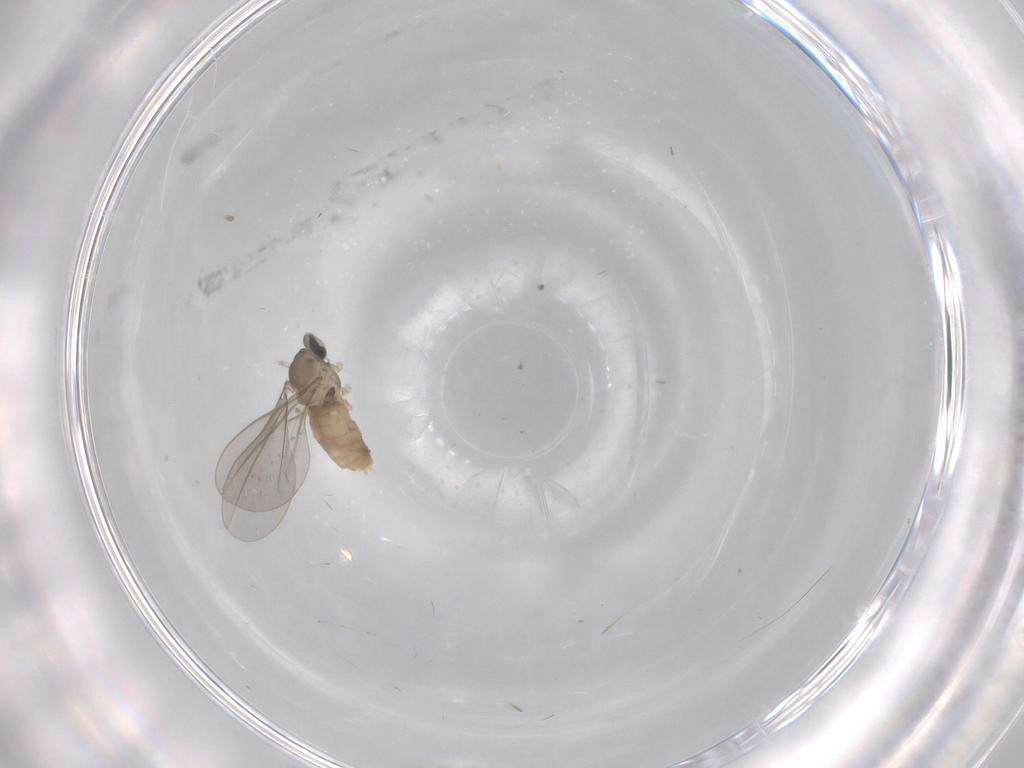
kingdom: Animalia
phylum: Arthropoda
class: Insecta
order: Diptera
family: Cecidomyiidae
